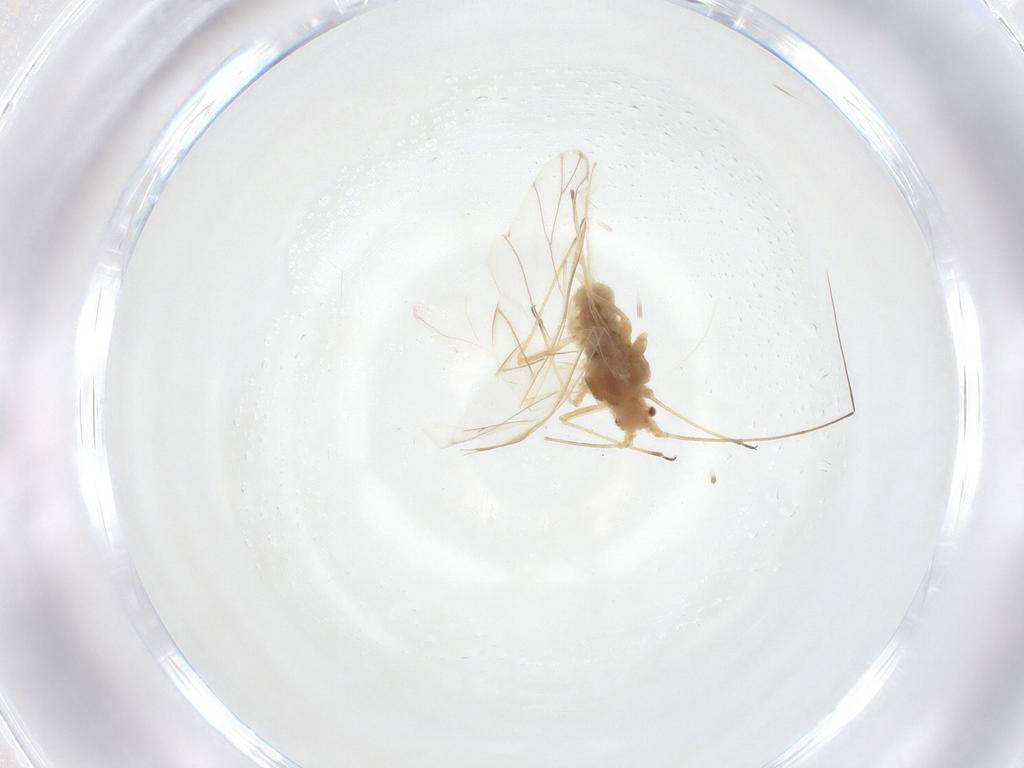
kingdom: Animalia
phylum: Arthropoda
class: Insecta
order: Hemiptera
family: Aphididae
